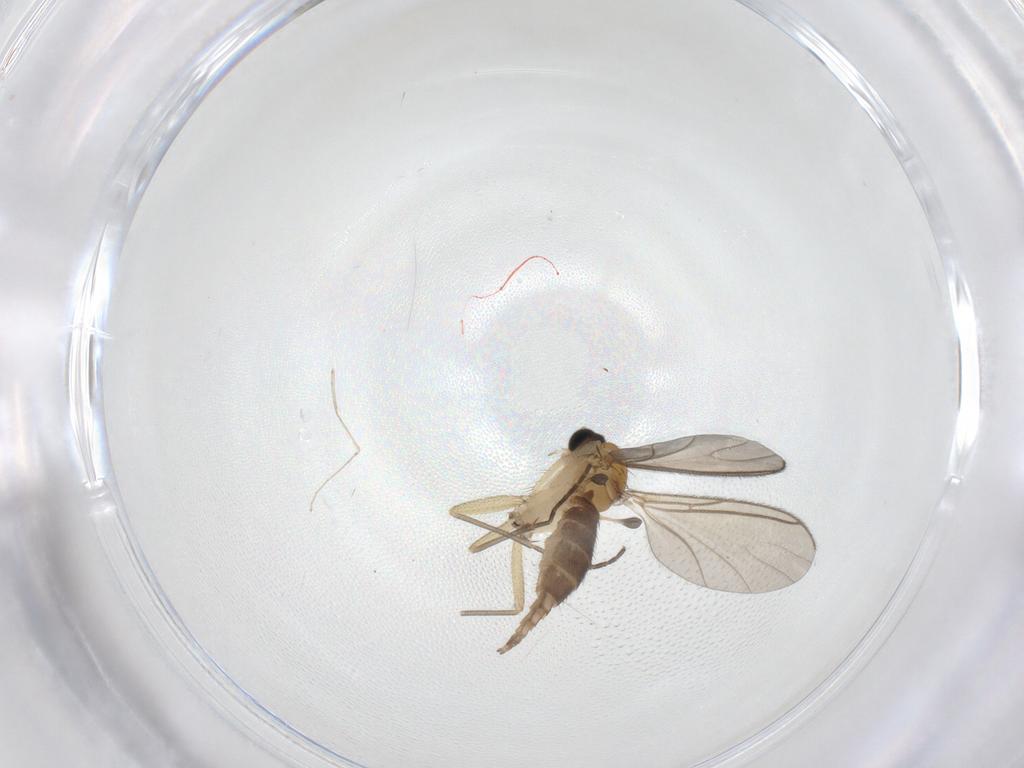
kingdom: Animalia
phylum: Arthropoda
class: Insecta
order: Diptera
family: Sciaridae
